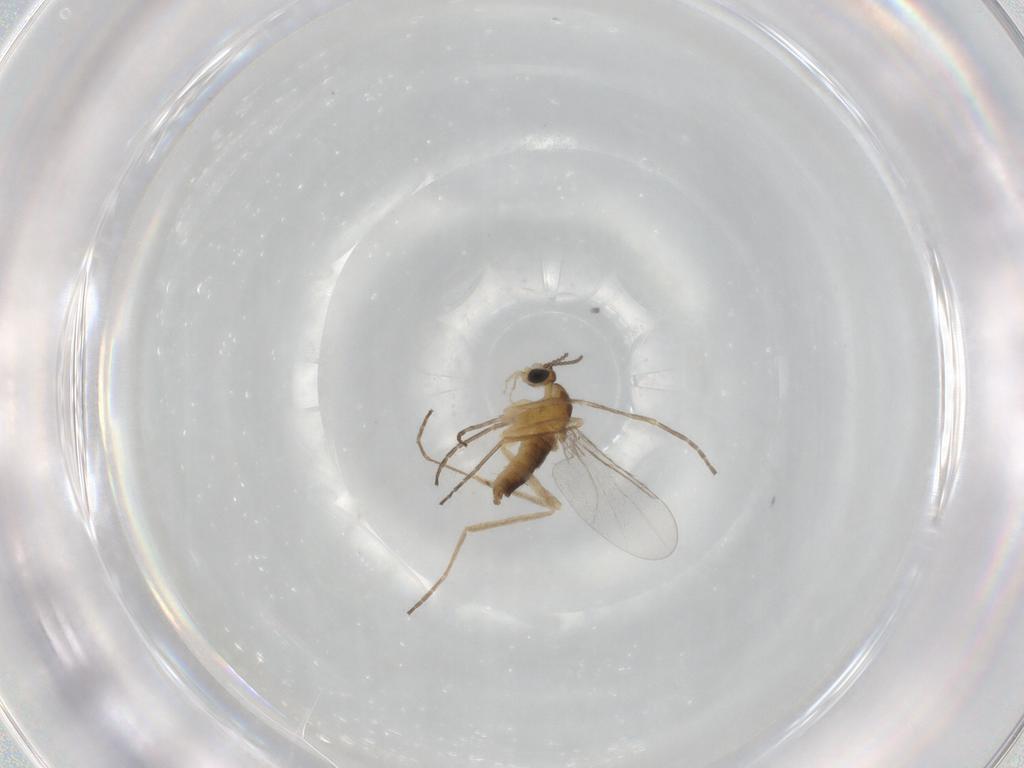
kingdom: Animalia
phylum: Arthropoda
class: Insecta
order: Diptera
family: Cecidomyiidae
